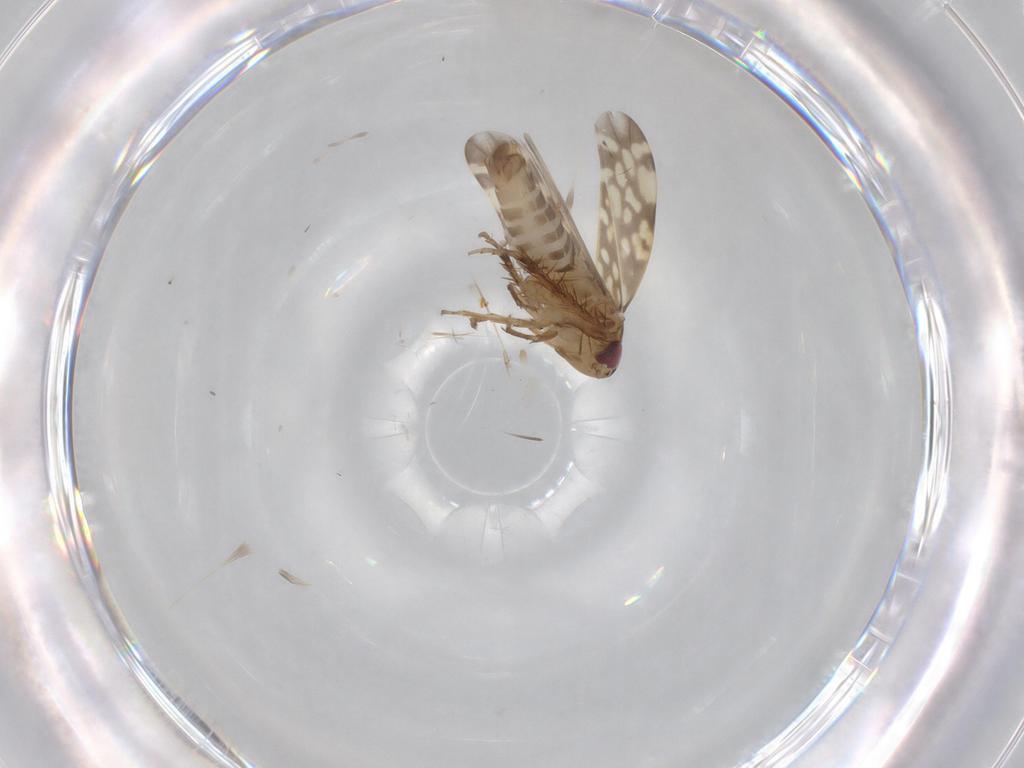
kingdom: Animalia
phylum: Arthropoda
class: Insecta
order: Hemiptera
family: Cicadellidae
